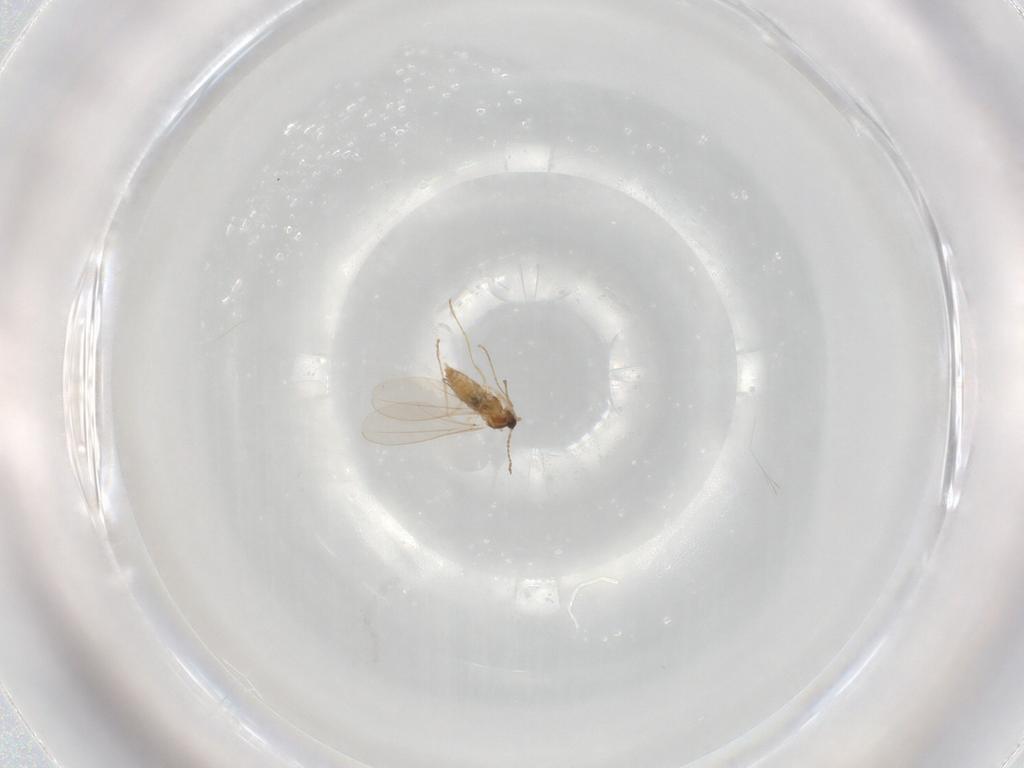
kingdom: Animalia
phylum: Arthropoda
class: Insecta
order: Diptera
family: Cecidomyiidae
